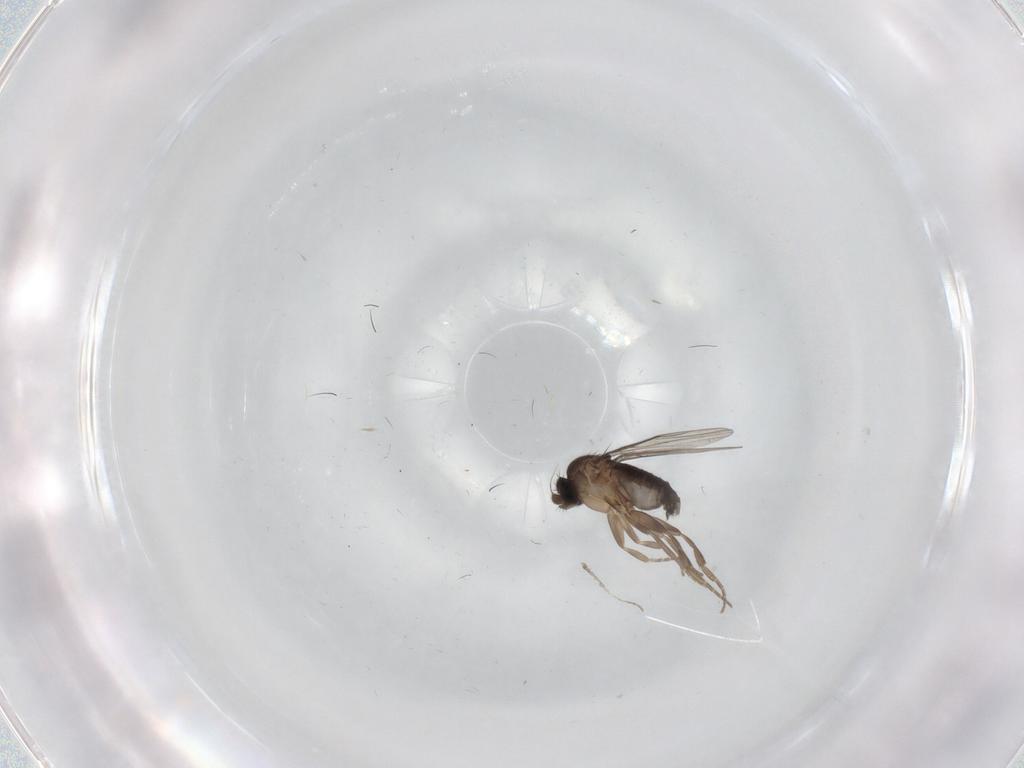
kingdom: Animalia
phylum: Arthropoda
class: Insecta
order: Diptera
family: Phoridae
